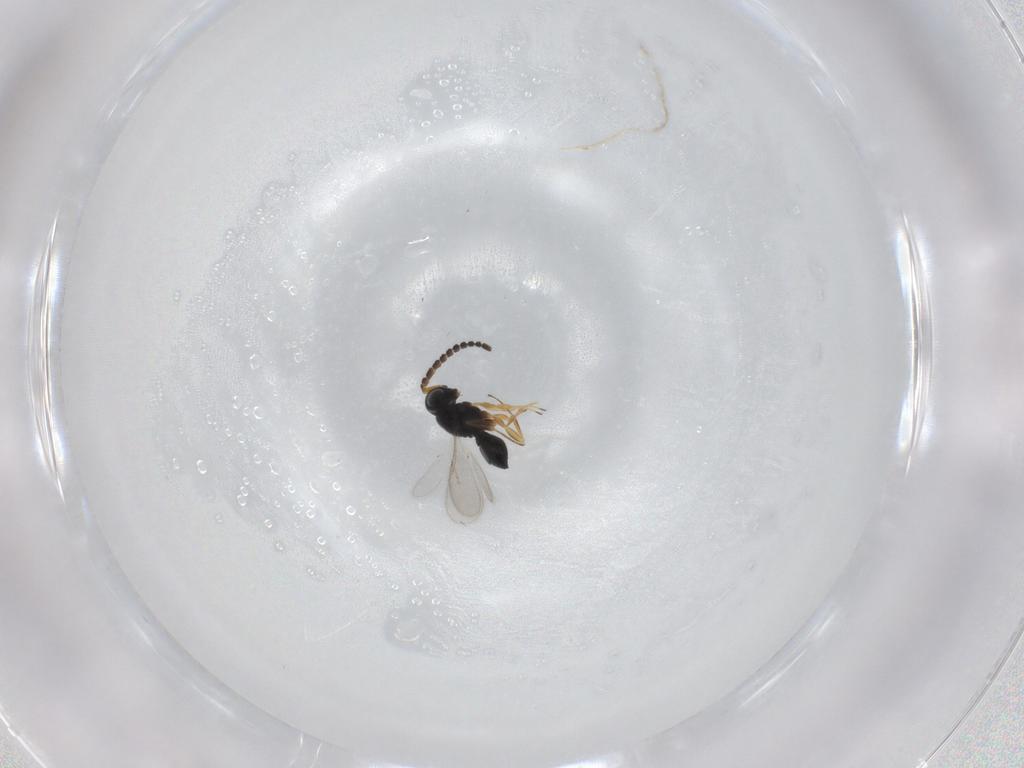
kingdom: Animalia
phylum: Arthropoda
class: Insecta
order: Hymenoptera
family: Scelionidae
